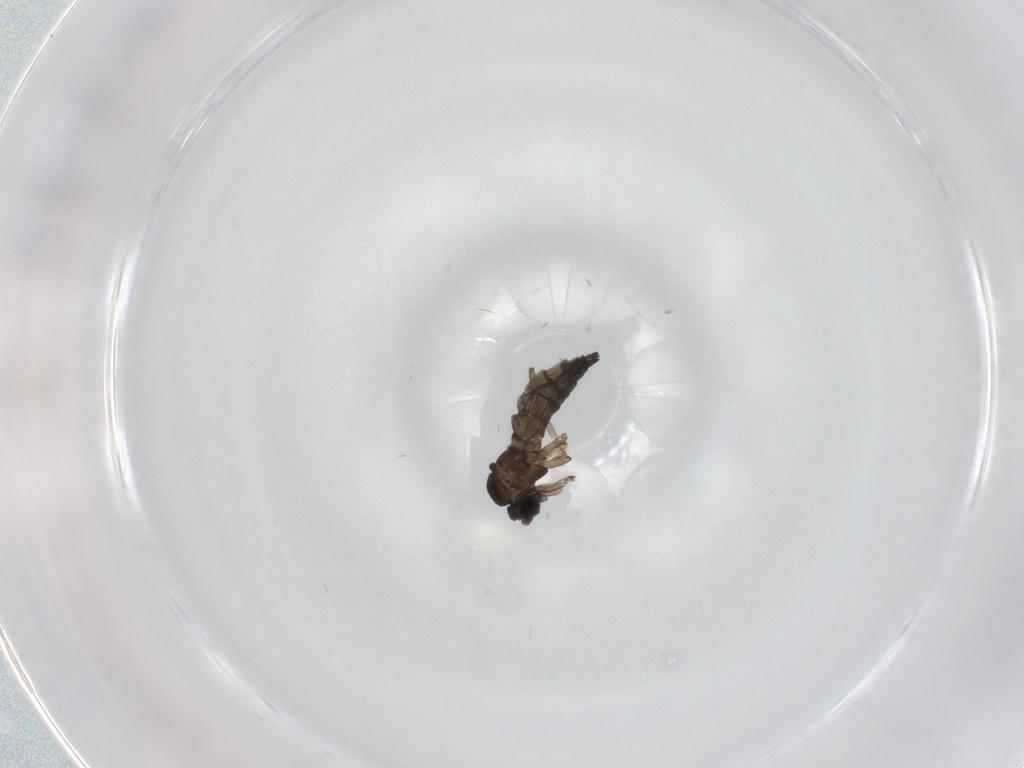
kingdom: Animalia
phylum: Arthropoda
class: Insecta
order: Diptera
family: Sciaridae
